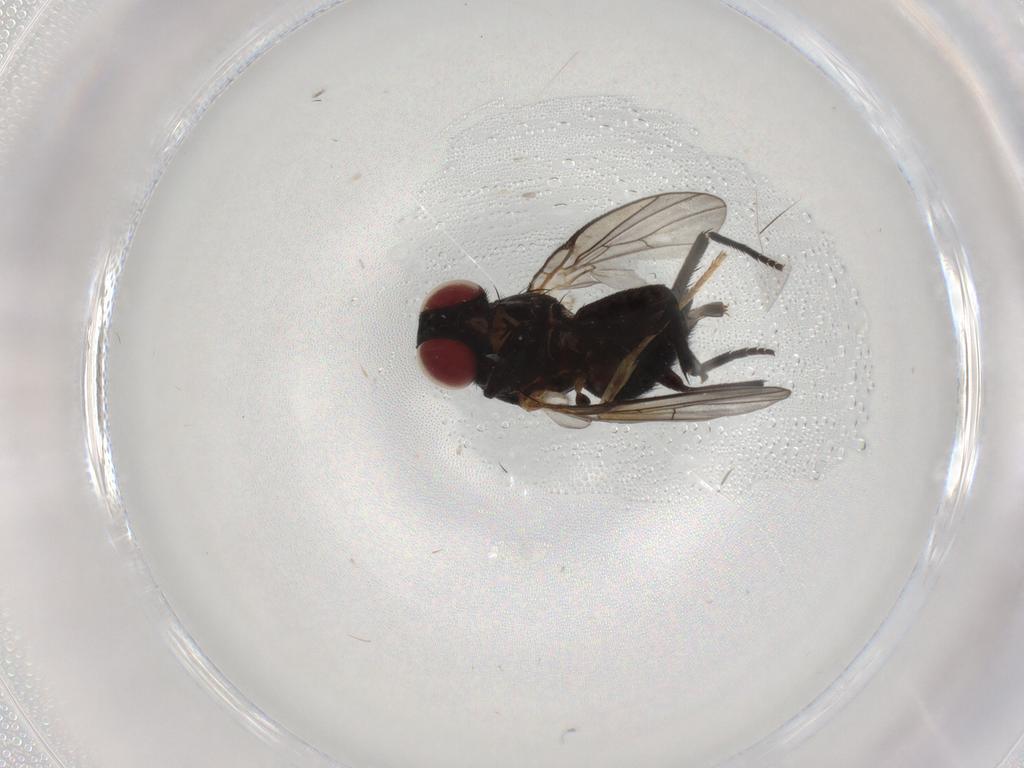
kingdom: Animalia
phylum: Arthropoda
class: Insecta
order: Diptera
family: Agromyzidae
